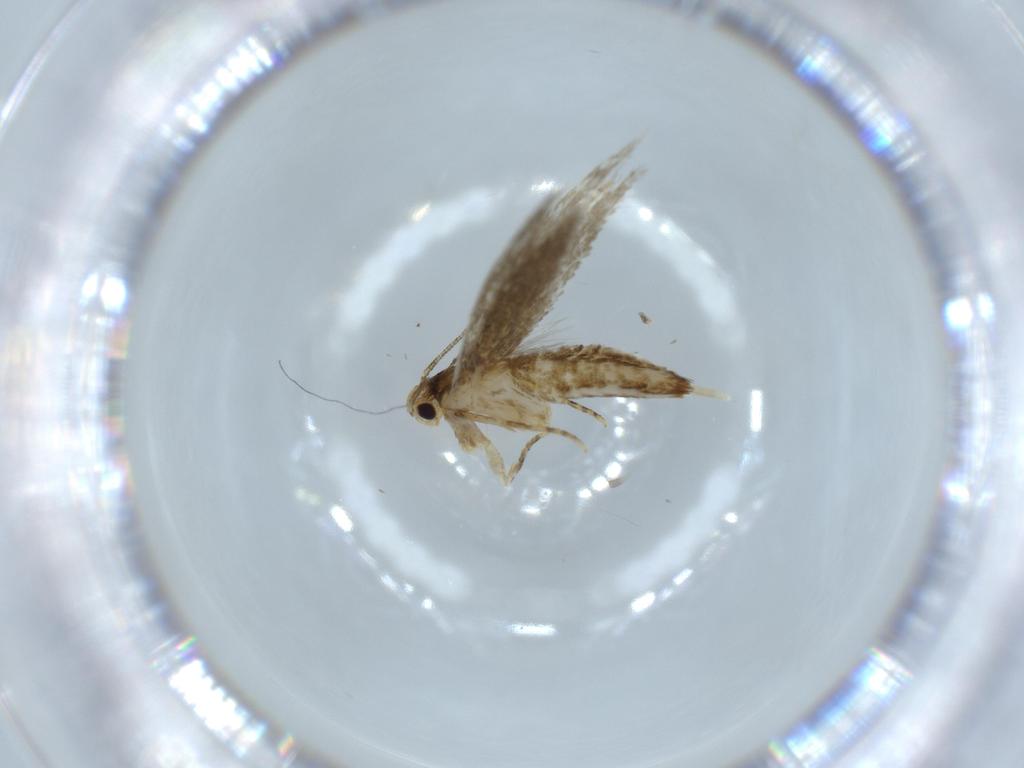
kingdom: Animalia
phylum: Arthropoda
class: Insecta
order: Lepidoptera
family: Tineidae
